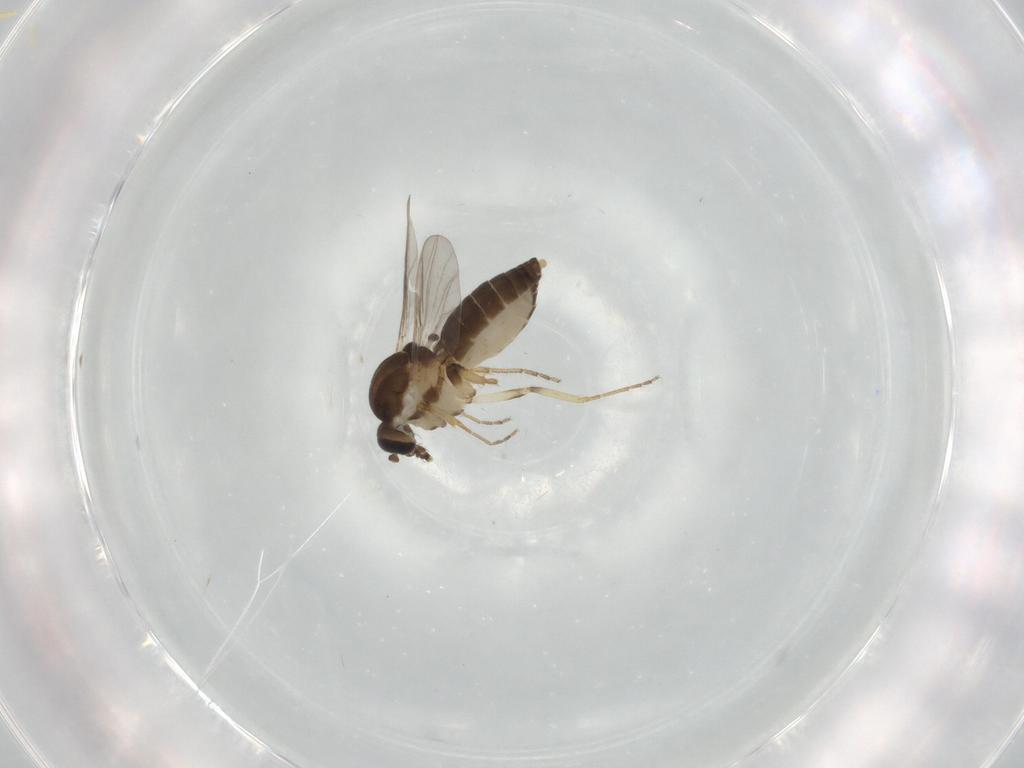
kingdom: Animalia
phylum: Arthropoda
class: Insecta
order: Diptera
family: Ceratopogonidae
